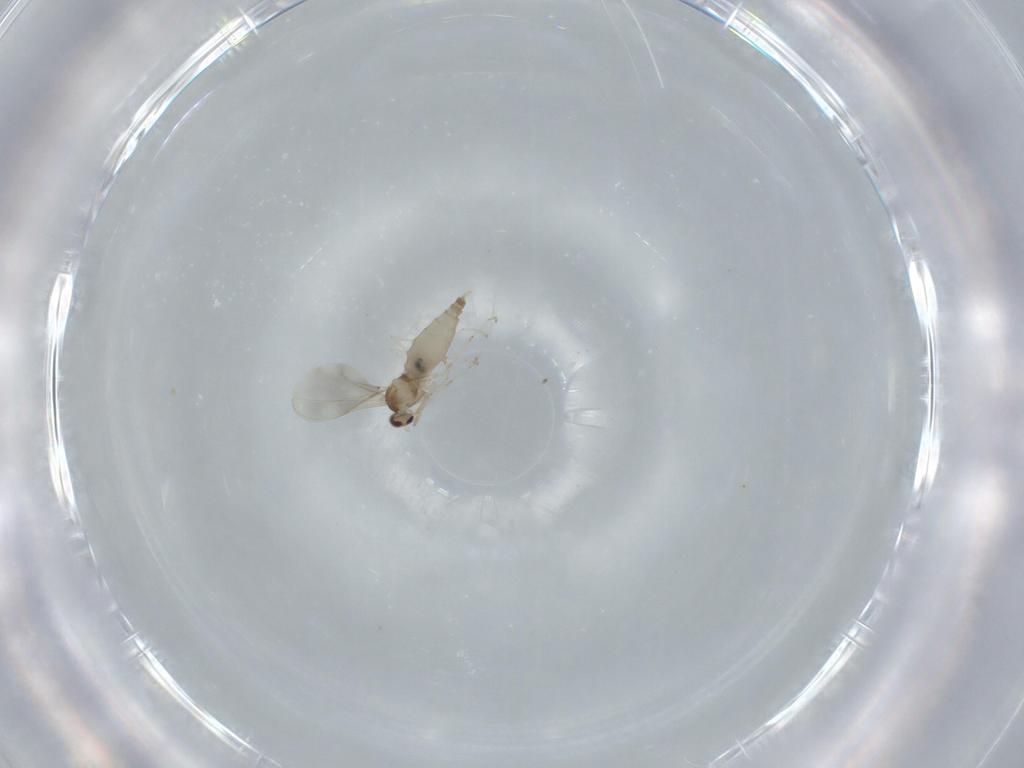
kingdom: Animalia
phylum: Arthropoda
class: Insecta
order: Diptera
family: Cecidomyiidae
